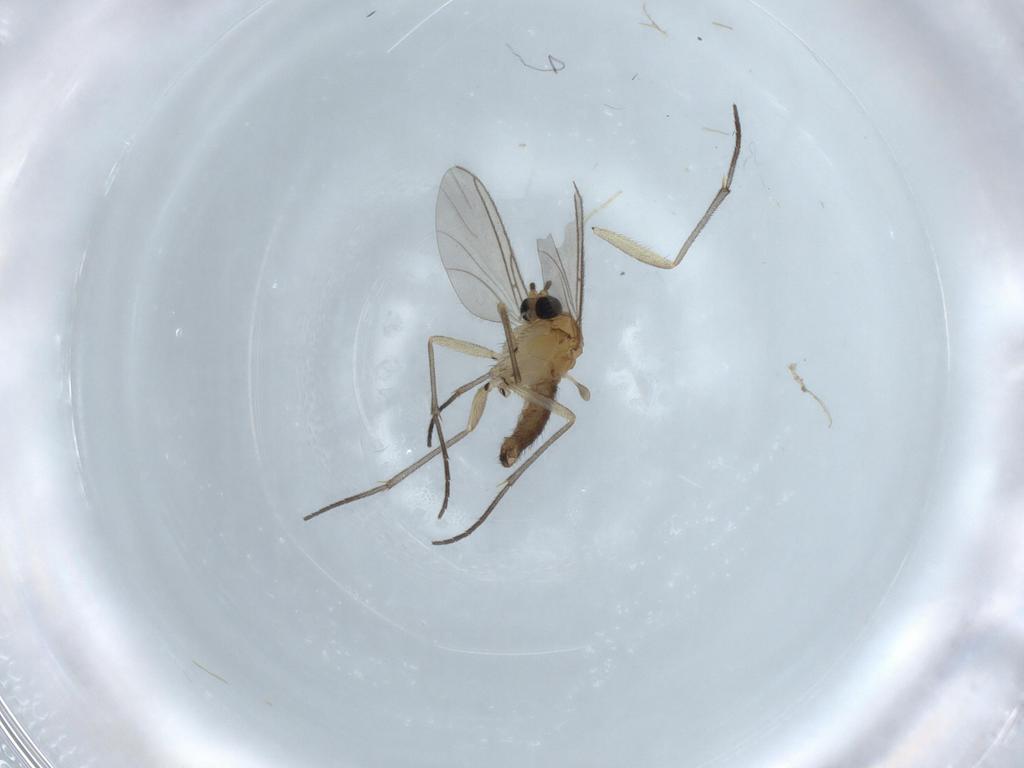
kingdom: Animalia
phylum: Arthropoda
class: Insecta
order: Diptera
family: Sciaridae
